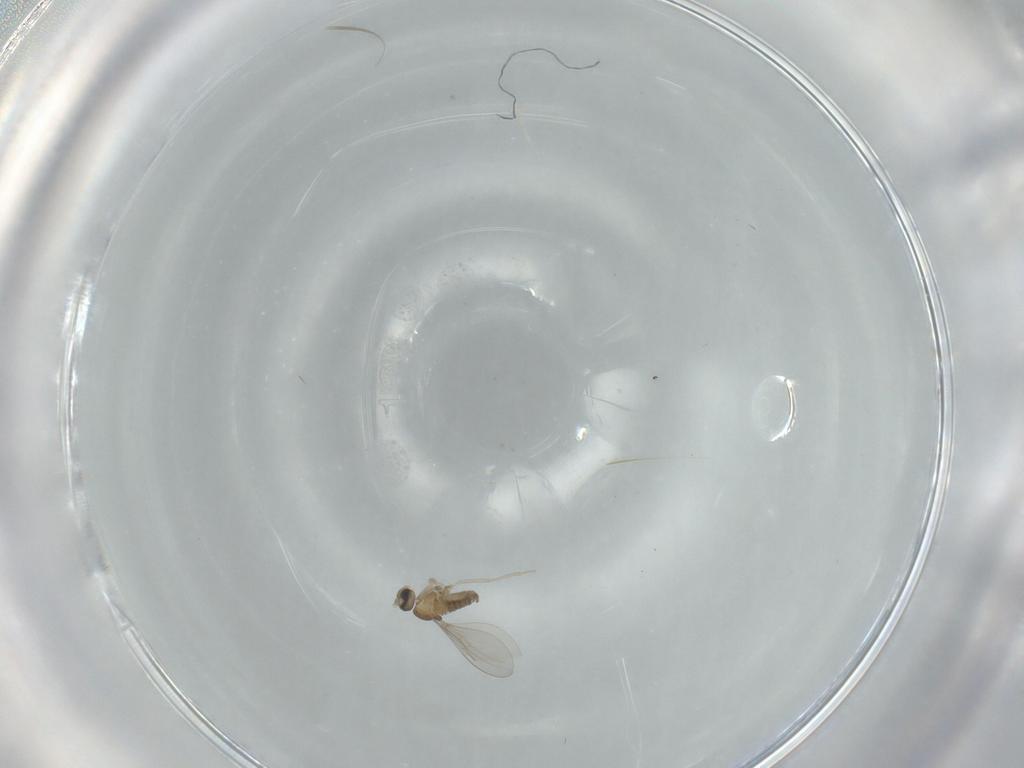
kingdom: Animalia
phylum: Arthropoda
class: Insecta
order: Diptera
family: Cecidomyiidae
